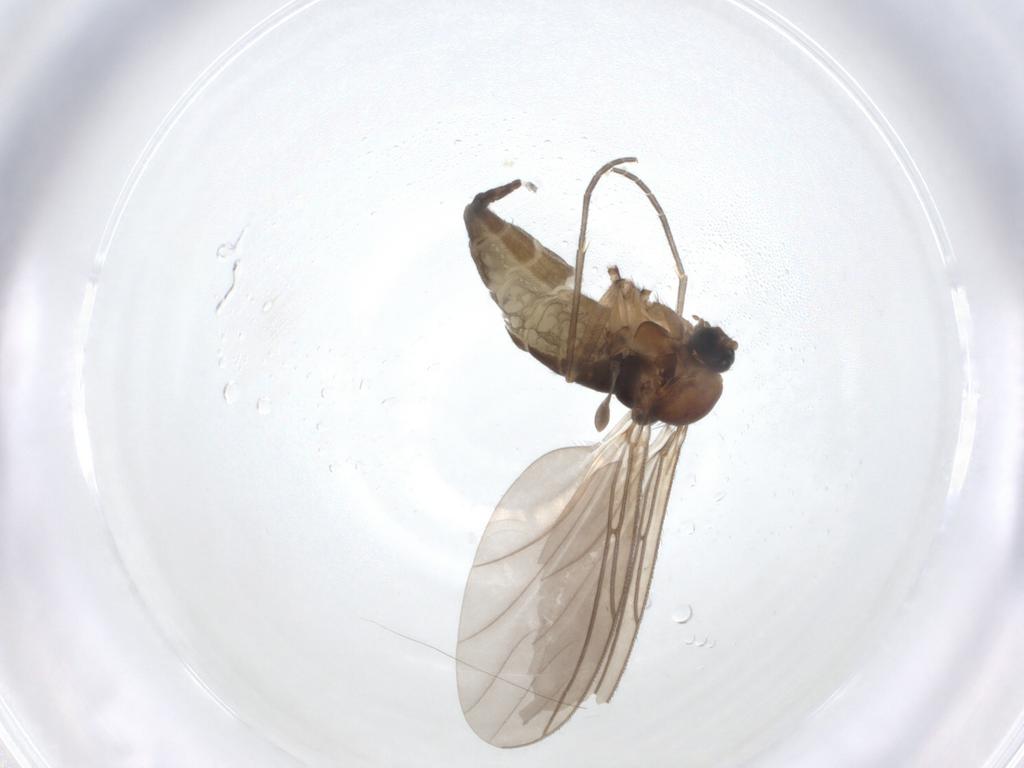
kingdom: Animalia
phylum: Arthropoda
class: Insecta
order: Diptera
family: Sciaridae
